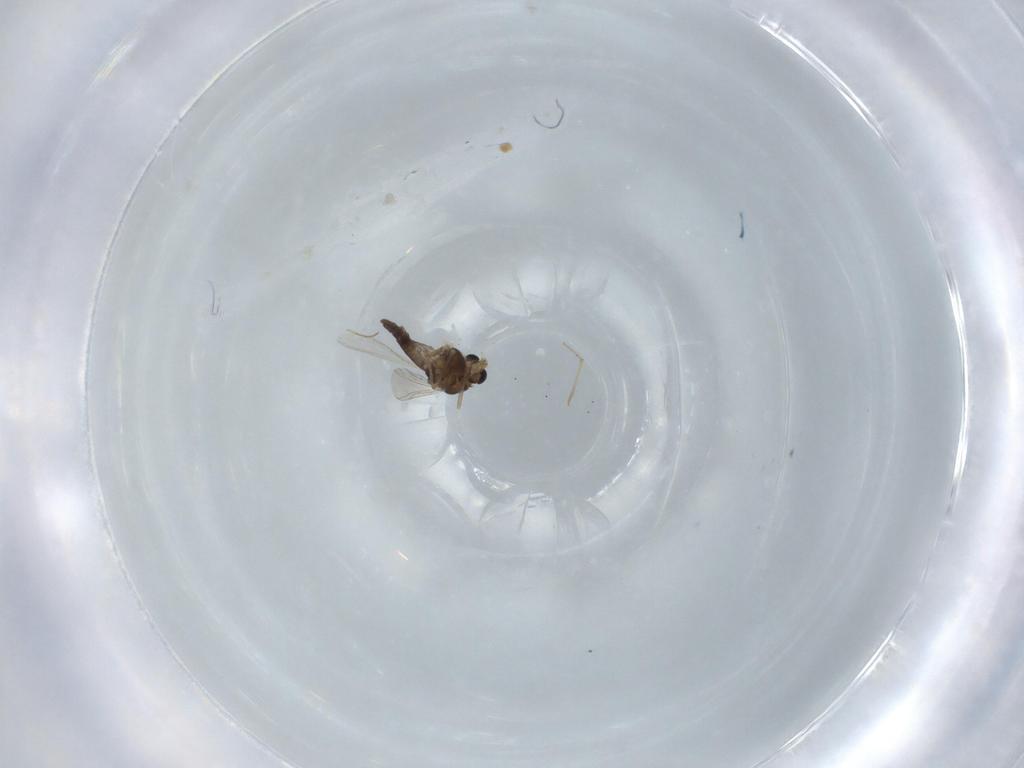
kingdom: Animalia
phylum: Arthropoda
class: Insecta
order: Diptera
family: Chironomidae
